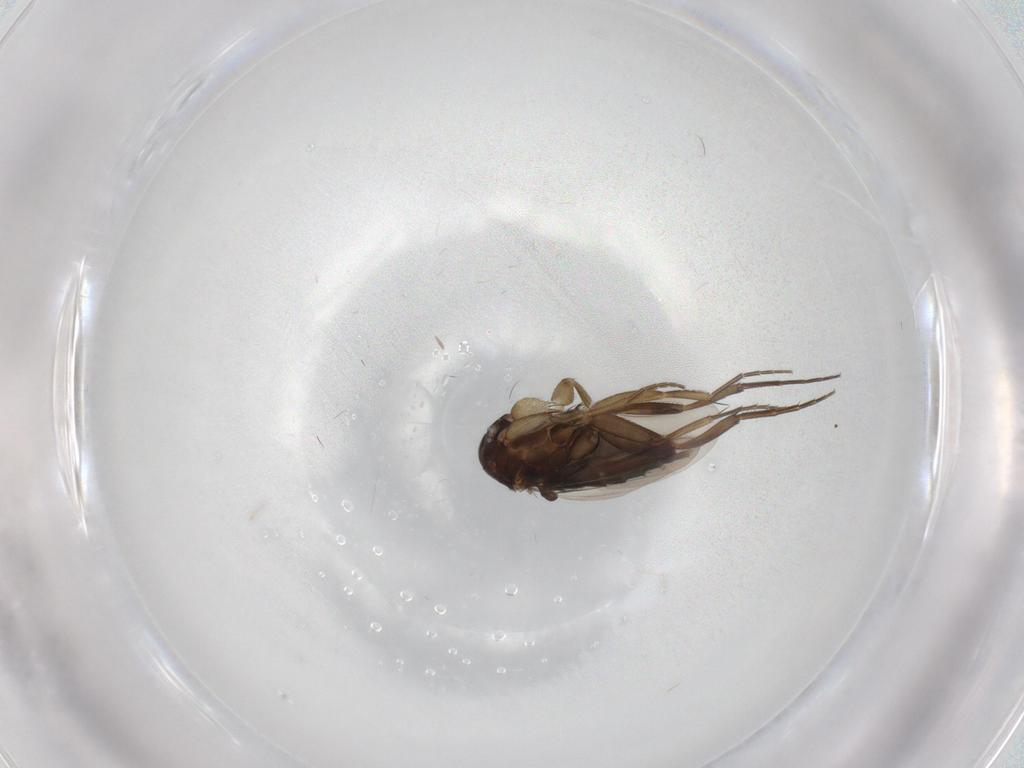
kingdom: Animalia
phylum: Arthropoda
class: Insecta
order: Diptera
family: Phoridae
